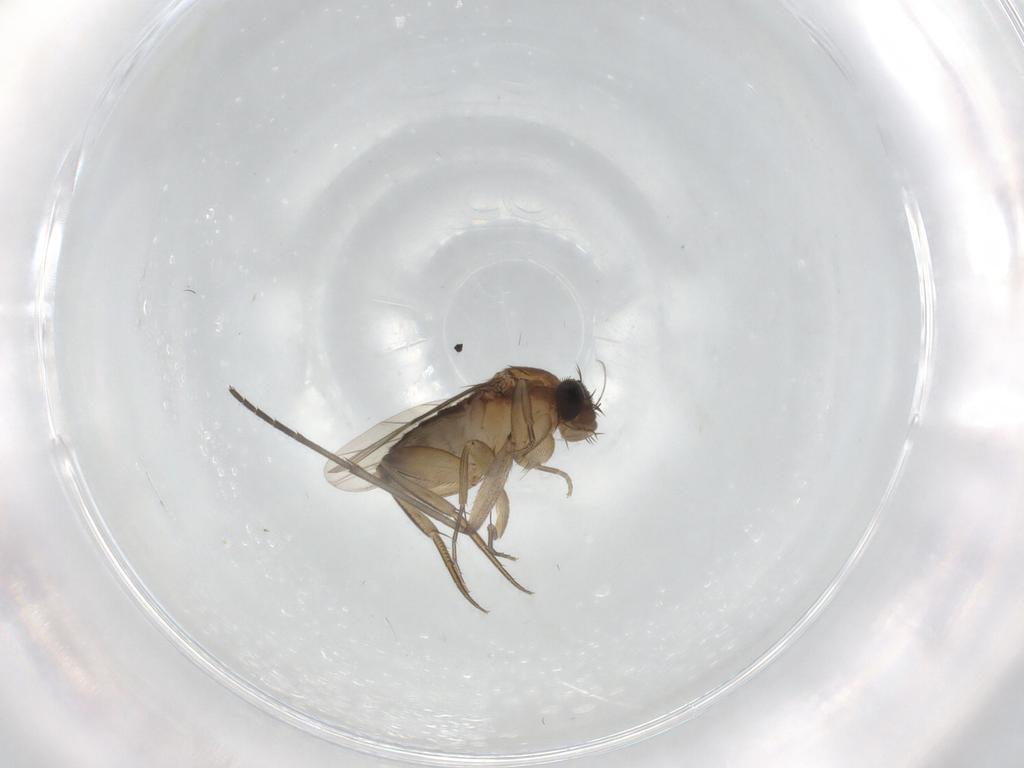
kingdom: Animalia
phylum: Arthropoda
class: Insecta
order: Diptera
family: Phoridae
